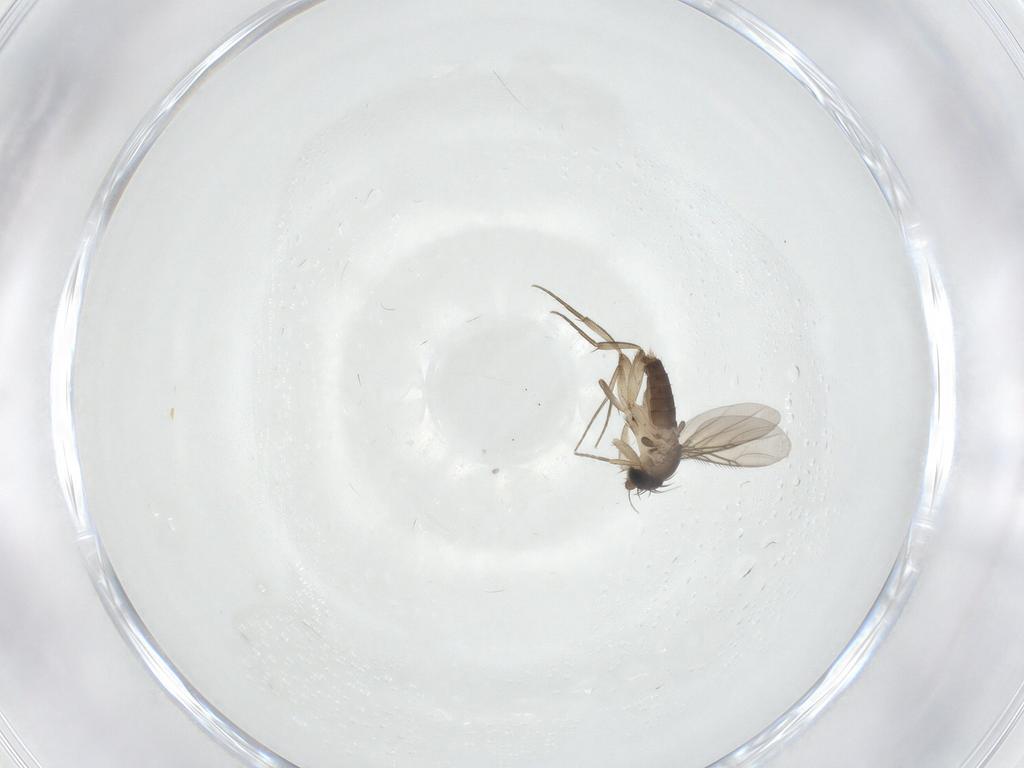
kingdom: Animalia
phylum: Arthropoda
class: Insecta
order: Diptera
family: Phoridae
